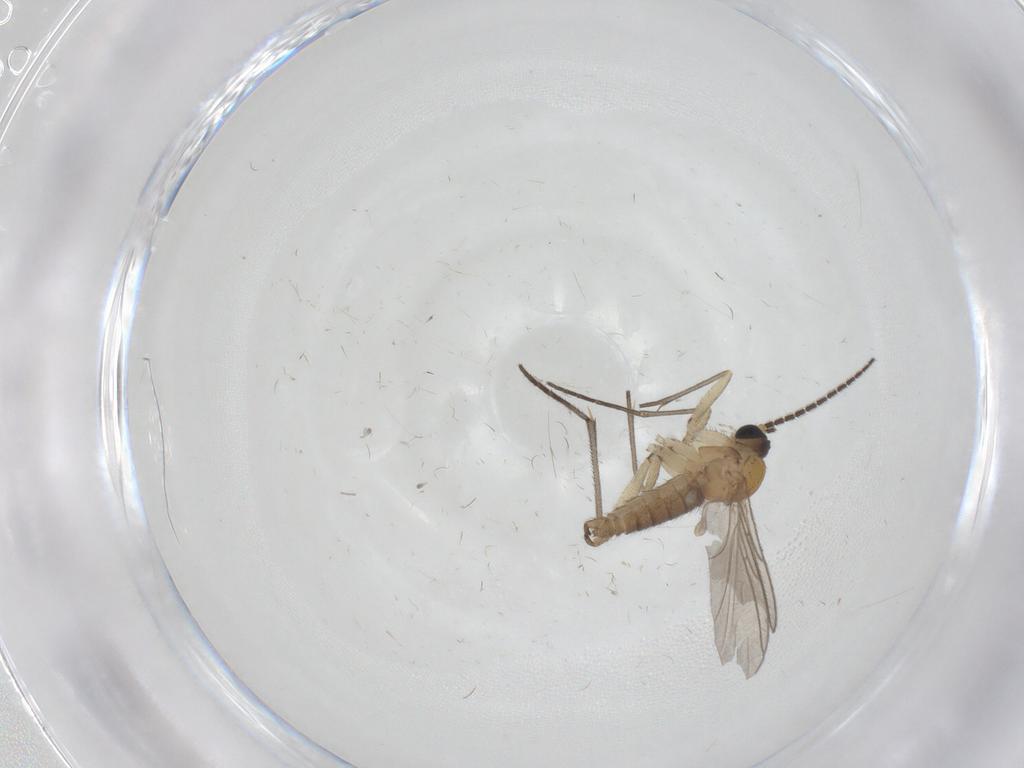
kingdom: Animalia
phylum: Arthropoda
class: Insecta
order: Diptera
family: Sciaridae
